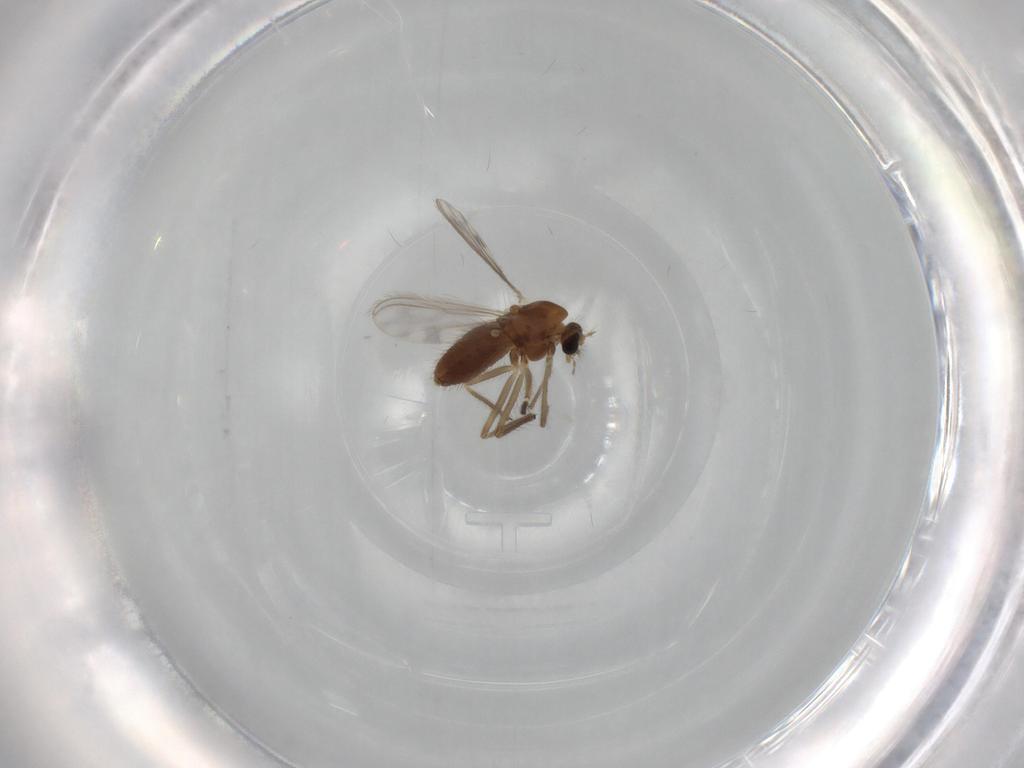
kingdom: Animalia
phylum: Arthropoda
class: Insecta
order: Diptera
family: Chironomidae
